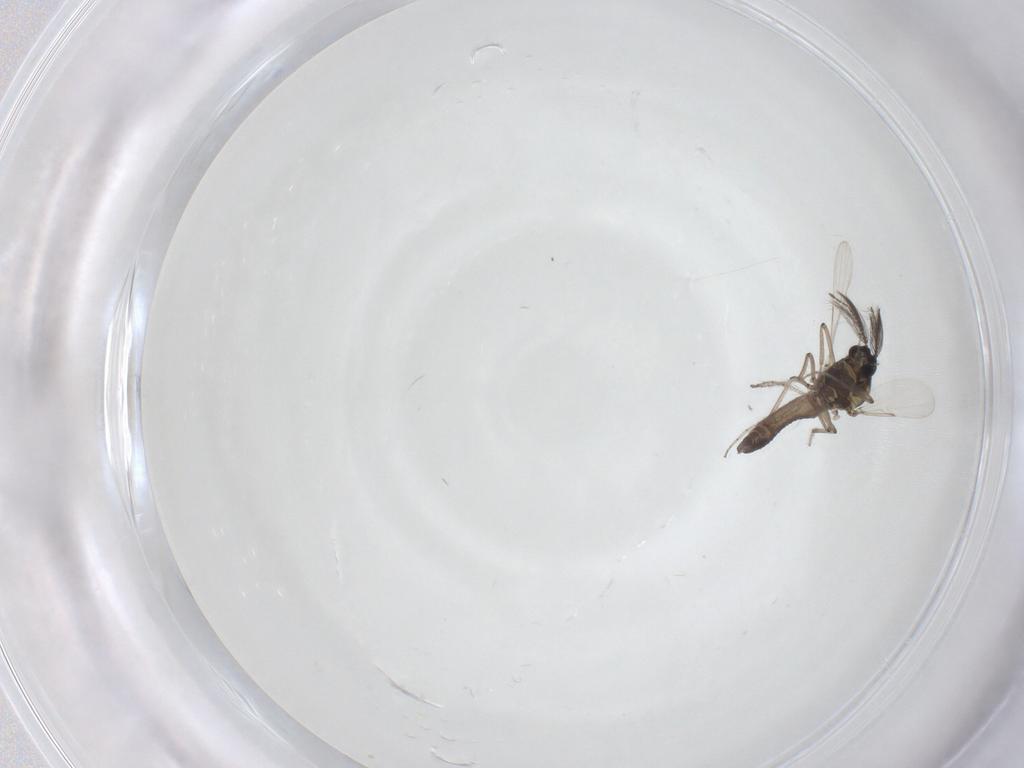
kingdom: Animalia
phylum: Arthropoda
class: Insecta
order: Diptera
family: Ceratopogonidae
